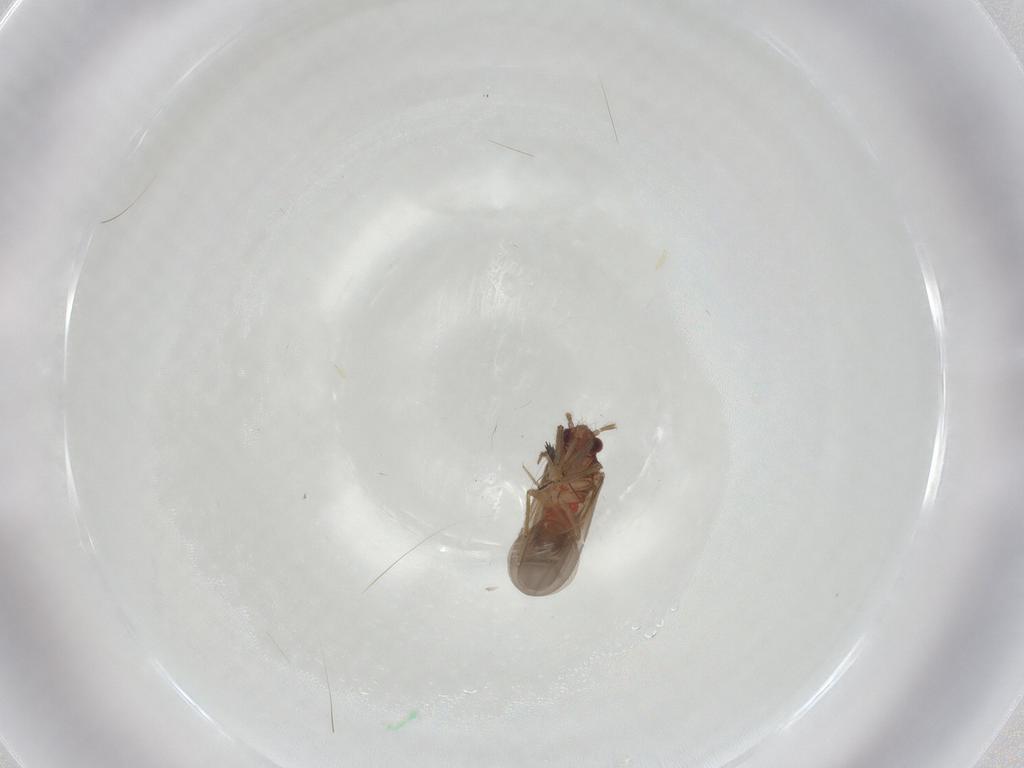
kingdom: Animalia
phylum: Arthropoda
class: Insecta
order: Hemiptera
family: Ceratocombidae
